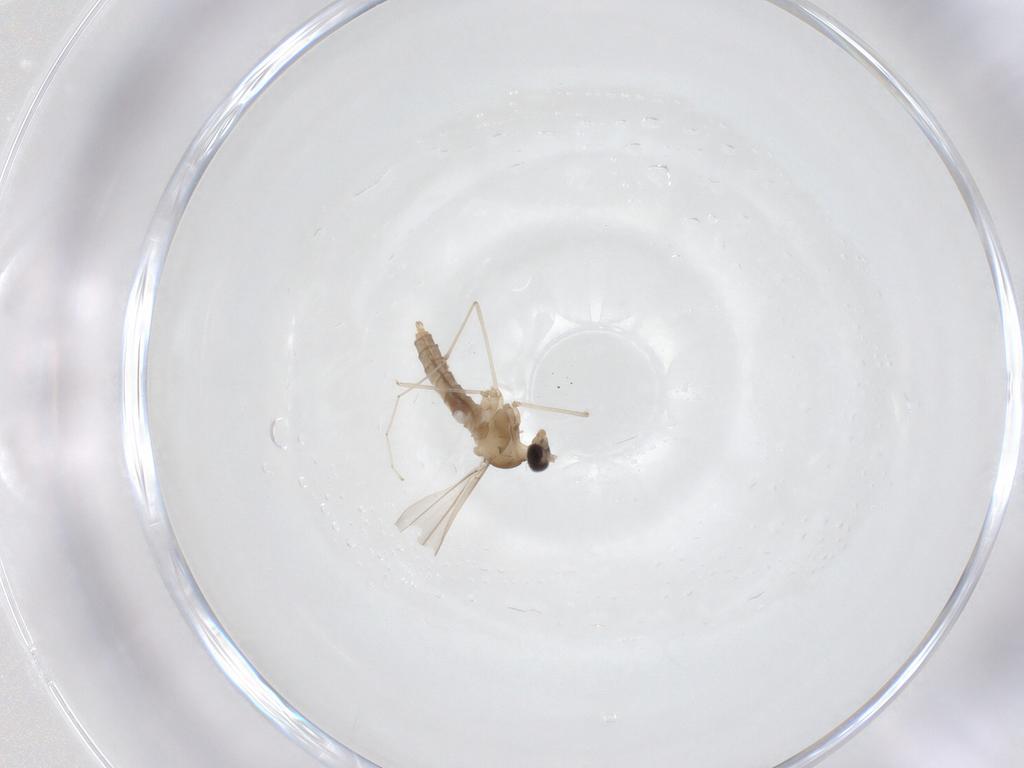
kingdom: Animalia
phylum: Arthropoda
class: Insecta
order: Diptera
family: Cecidomyiidae
